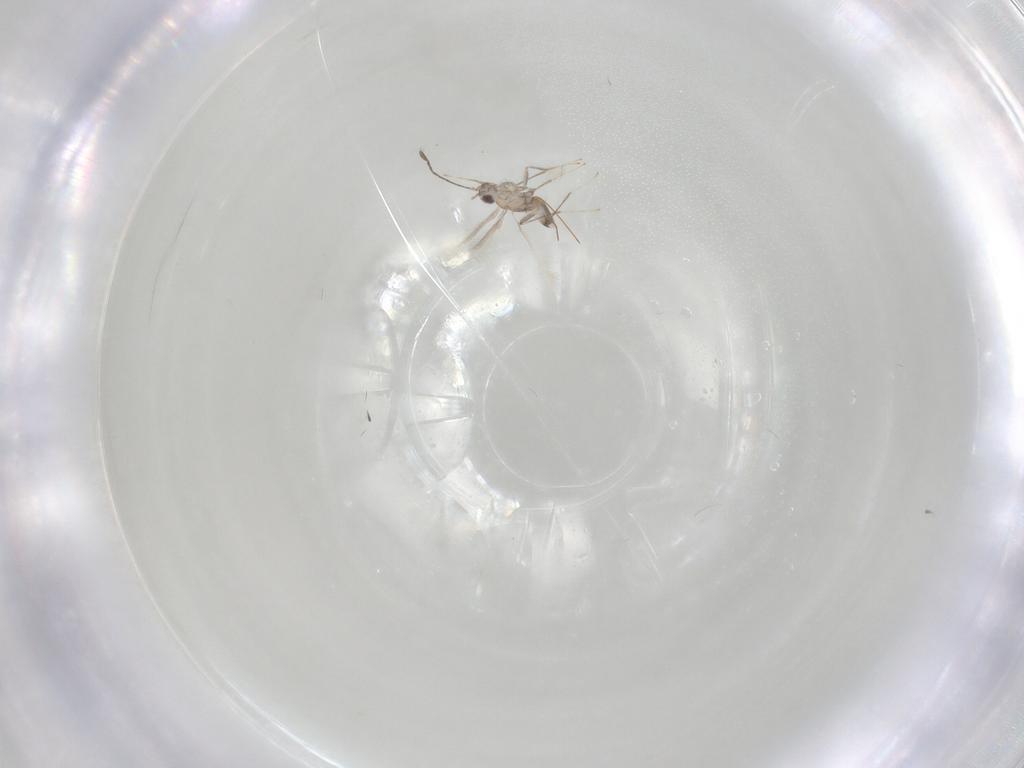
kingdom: Animalia
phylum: Arthropoda
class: Insecta
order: Hymenoptera
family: Mymaridae
